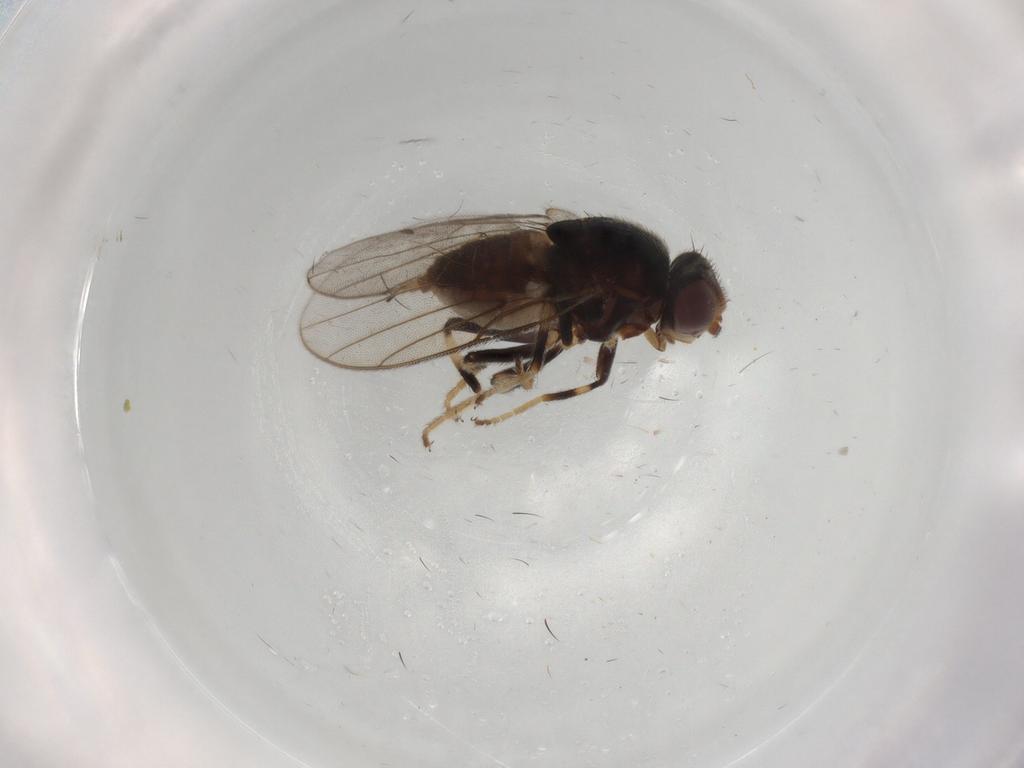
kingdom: Animalia
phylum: Arthropoda
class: Insecta
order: Diptera
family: Chloropidae
